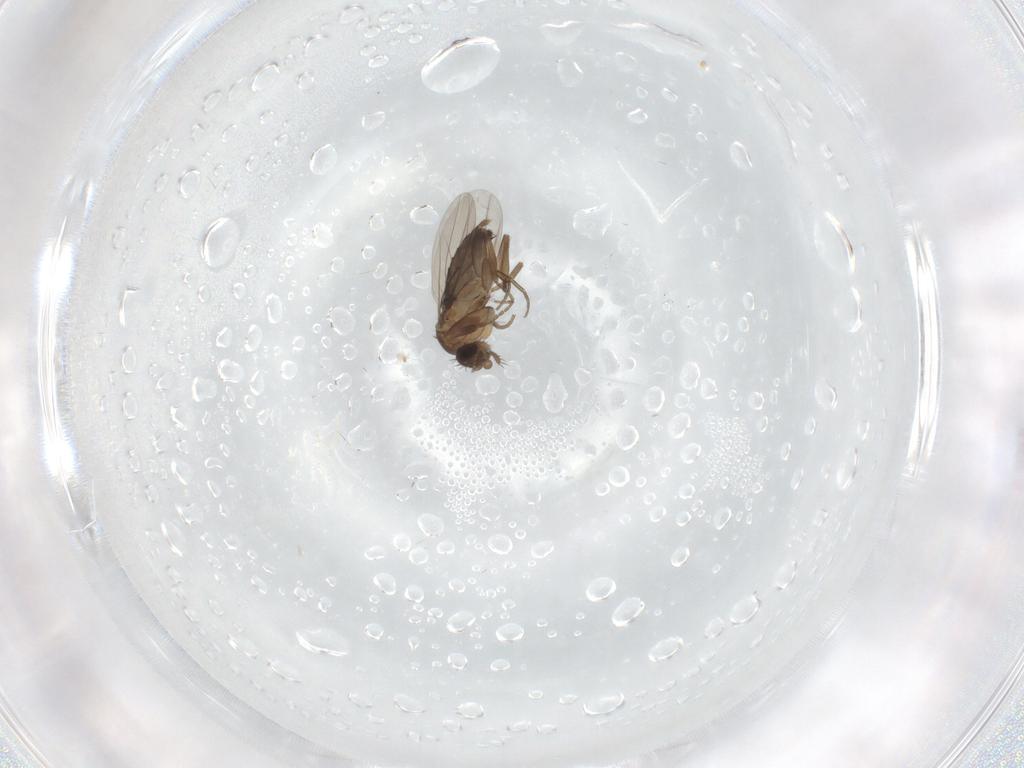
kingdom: Animalia
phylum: Arthropoda
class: Insecta
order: Diptera
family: Phoridae
